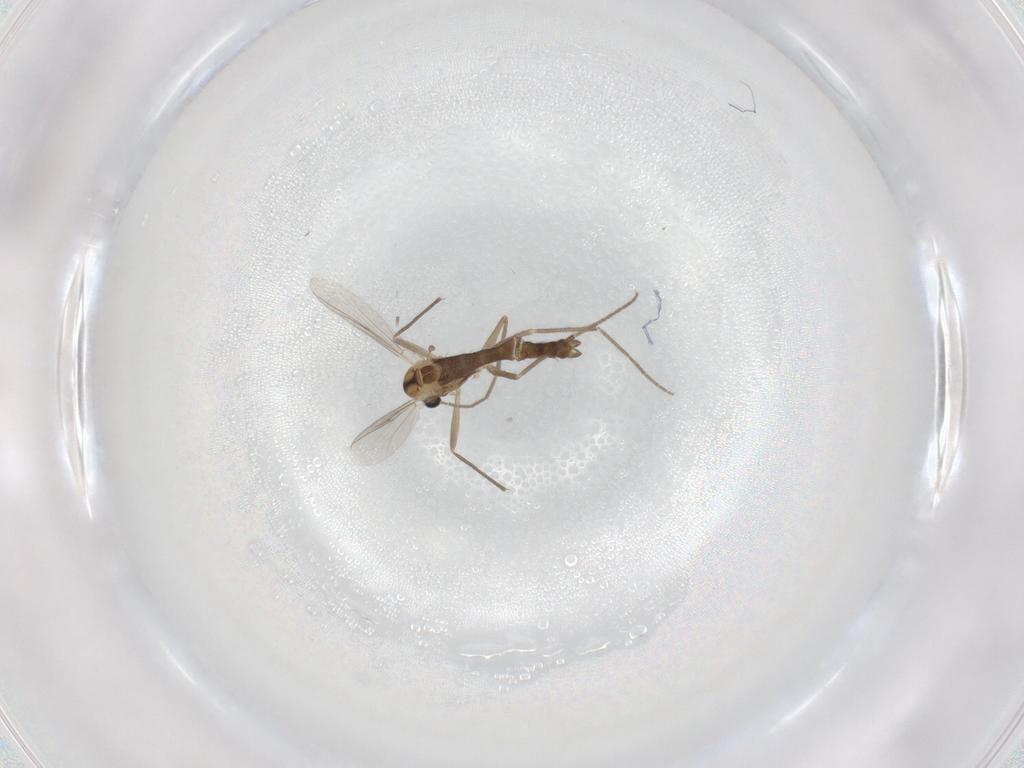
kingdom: Animalia
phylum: Arthropoda
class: Insecta
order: Diptera
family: Chironomidae
